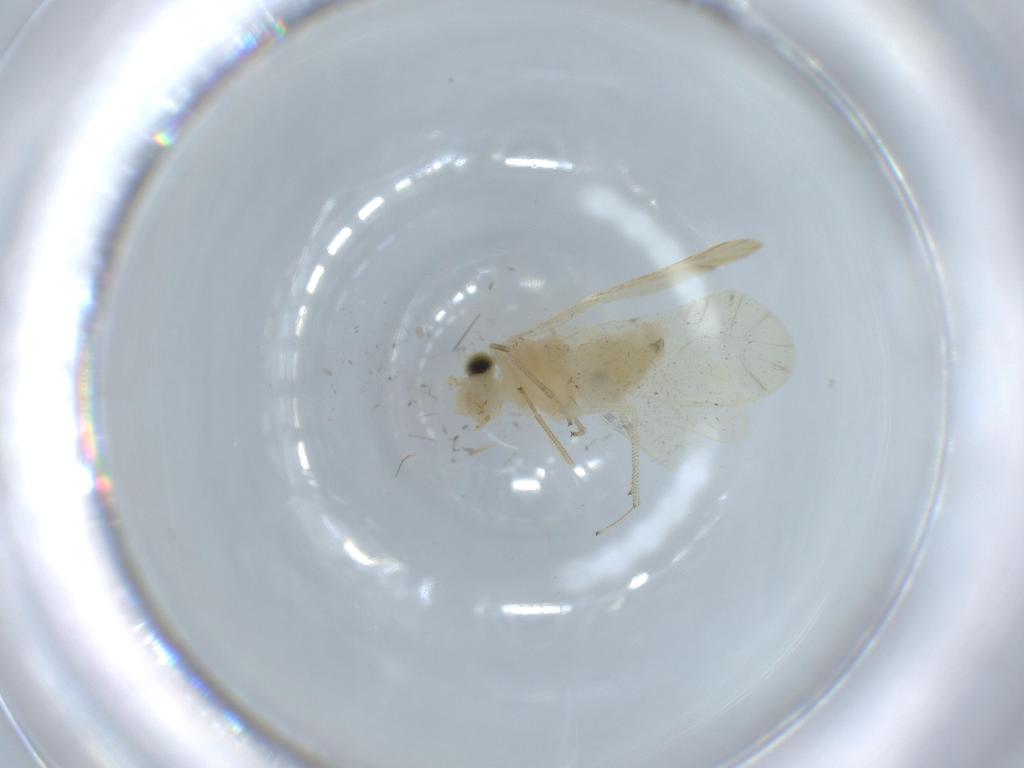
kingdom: Animalia
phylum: Arthropoda
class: Insecta
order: Psocodea
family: Caeciliusidae
